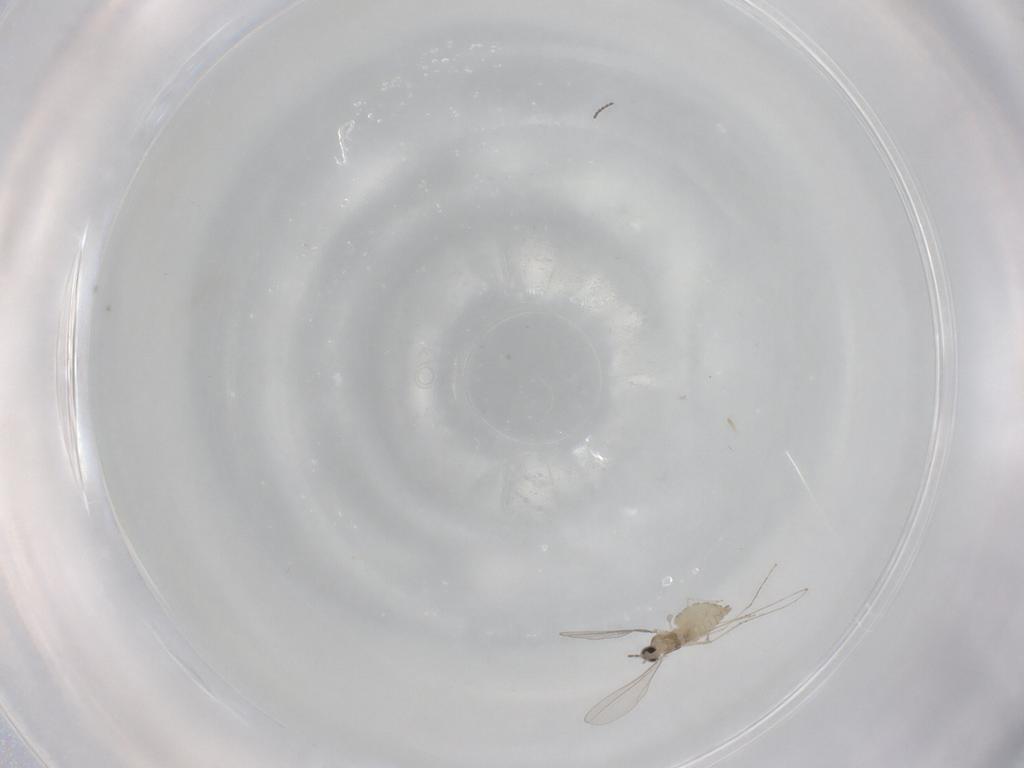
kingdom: Animalia
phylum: Arthropoda
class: Insecta
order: Diptera
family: Cecidomyiidae
